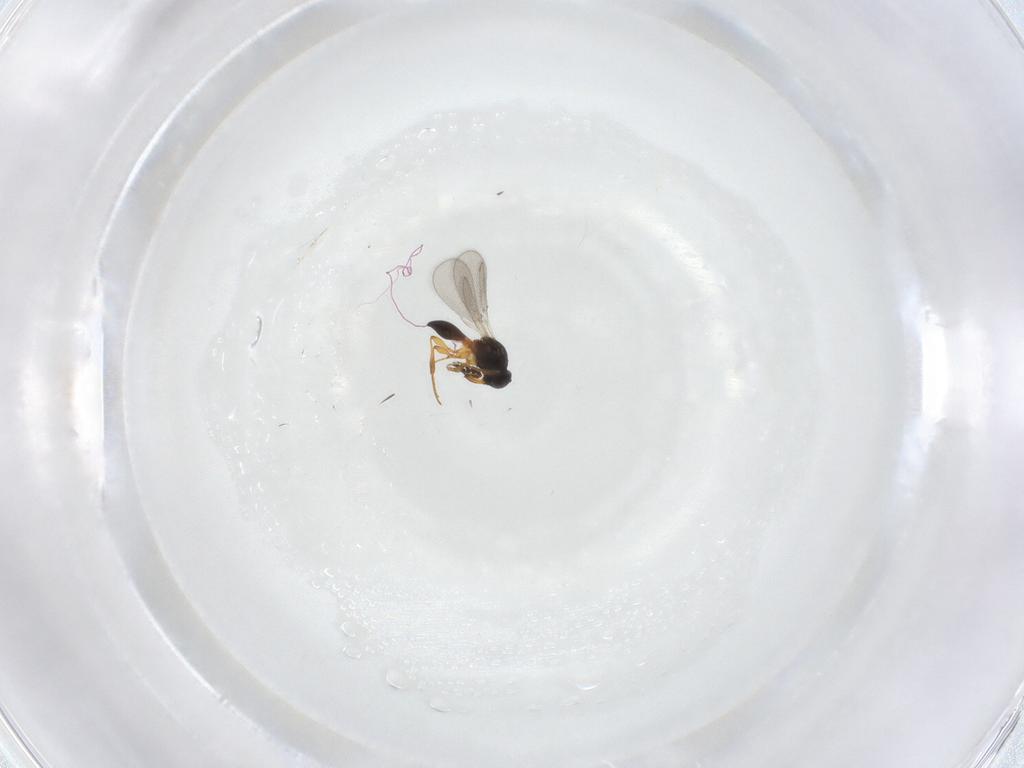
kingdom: Animalia
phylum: Arthropoda
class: Insecta
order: Hymenoptera
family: Platygastridae
